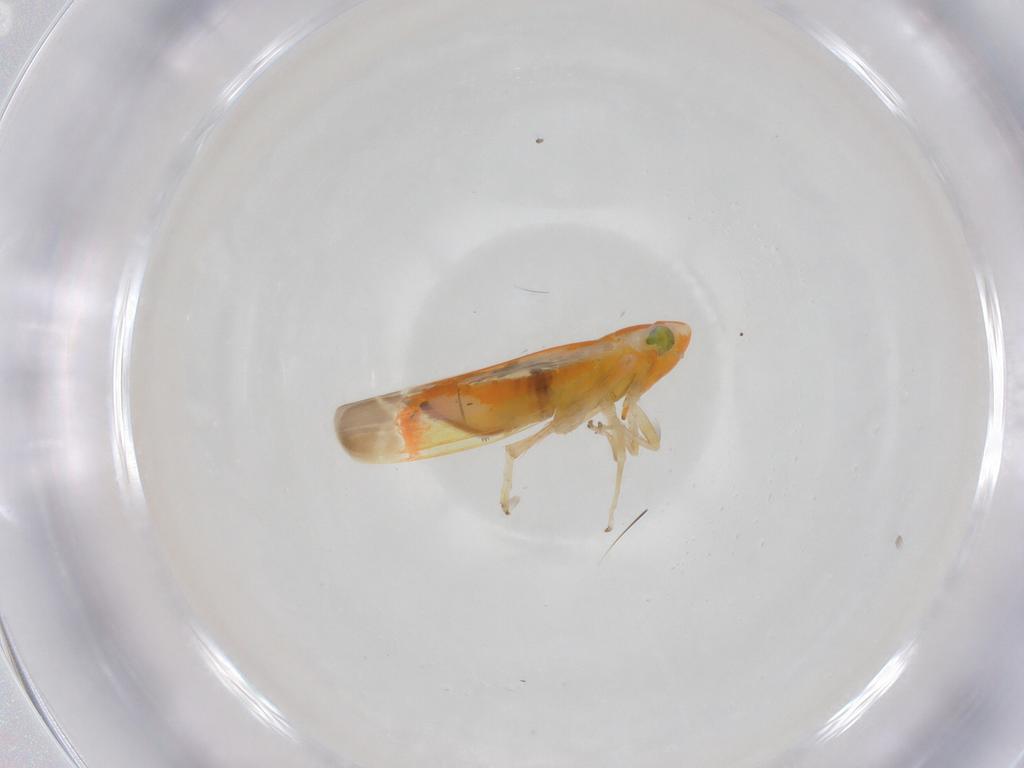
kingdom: Animalia
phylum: Arthropoda
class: Insecta
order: Hemiptera
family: Cicadellidae
